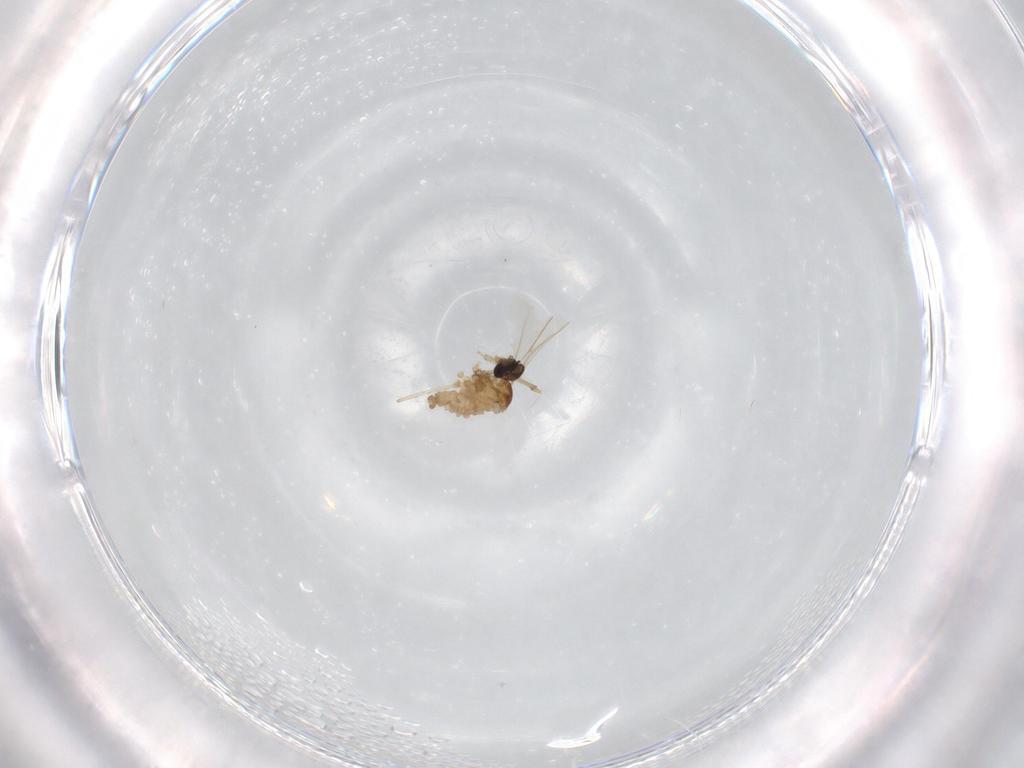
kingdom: Animalia
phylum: Arthropoda
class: Insecta
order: Diptera
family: Cecidomyiidae
